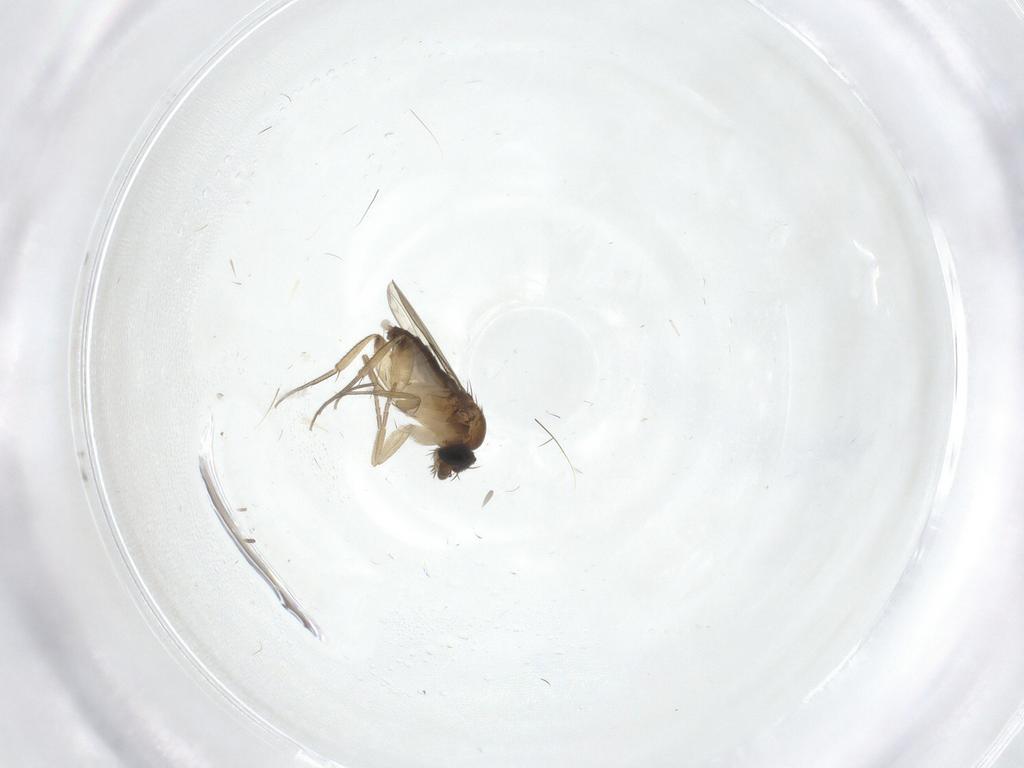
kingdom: Animalia
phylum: Arthropoda
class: Insecta
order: Diptera
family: Phoridae
